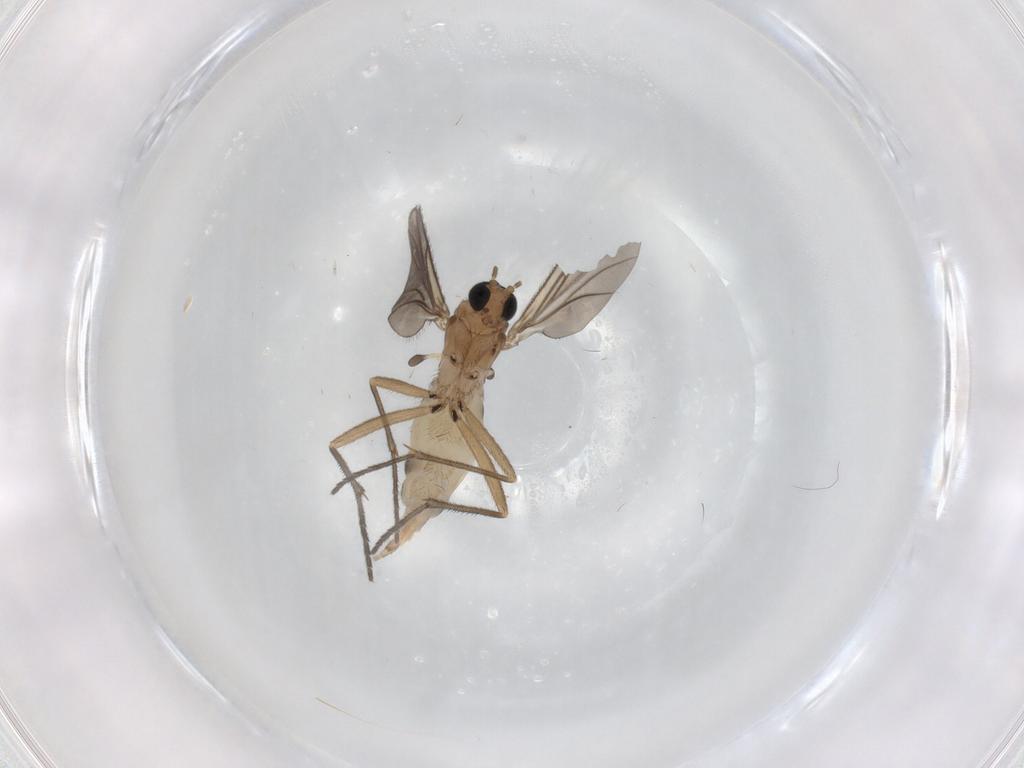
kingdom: Animalia
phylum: Arthropoda
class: Insecta
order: Diptera
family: Sciaridae
